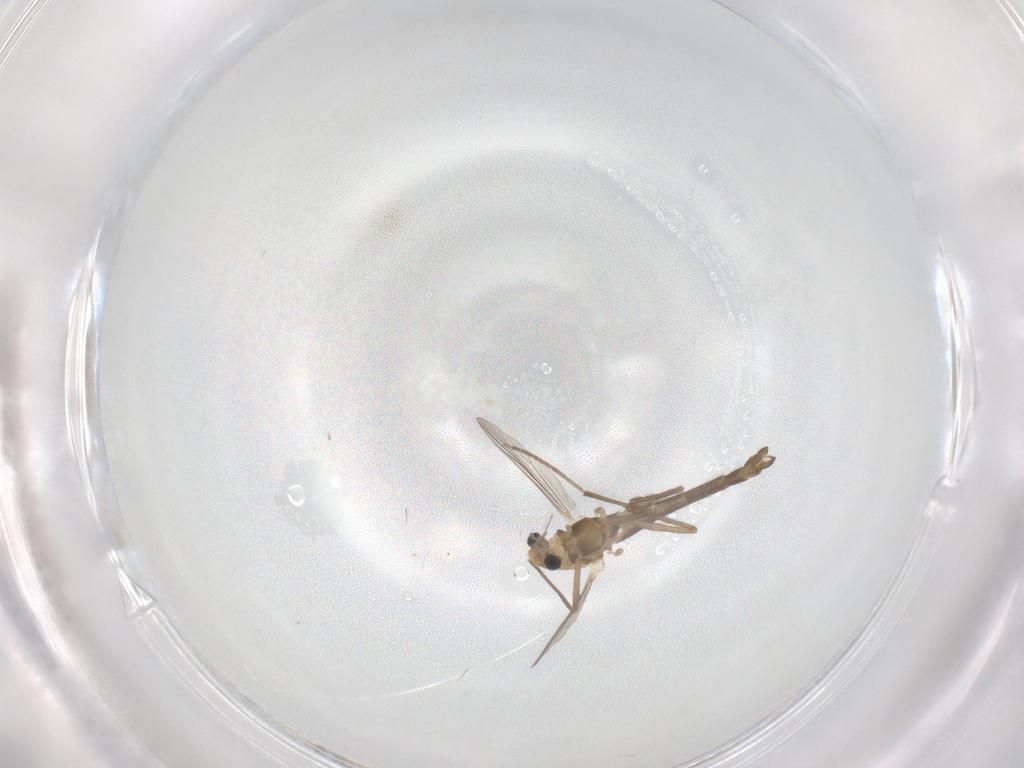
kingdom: Animalia
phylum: Arthropoda
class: Insecta
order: Diptera
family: Chironomidae
